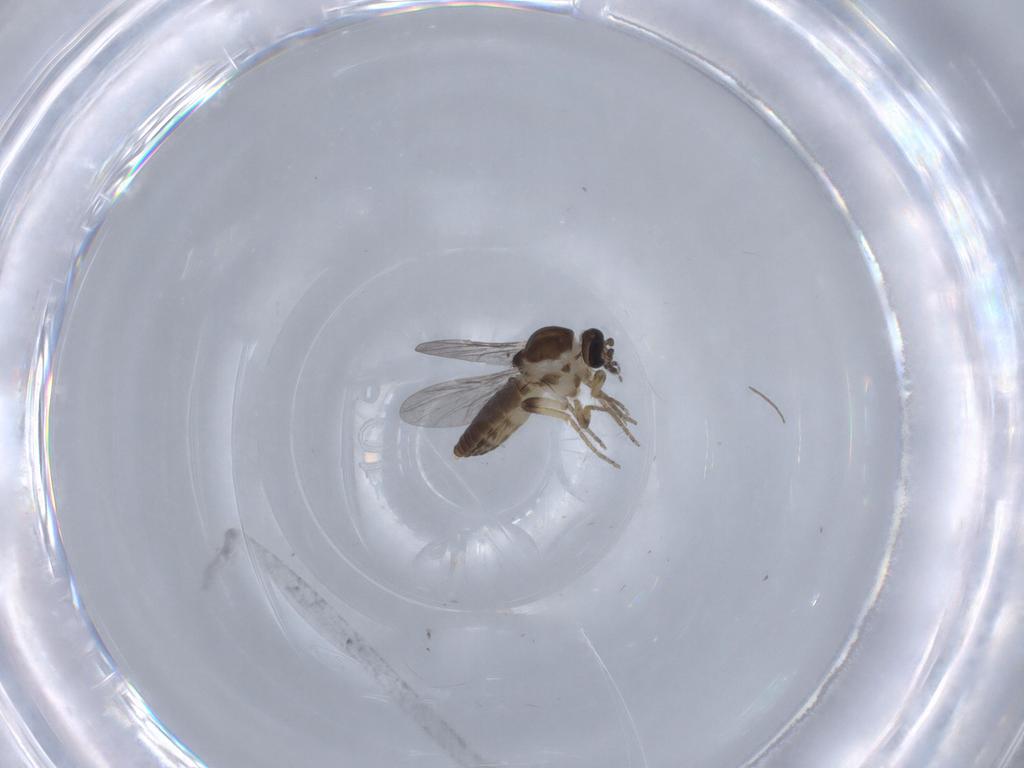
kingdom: Animalia
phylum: Arthropoda
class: Insecta
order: Diptera
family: Ceratopogonidae
